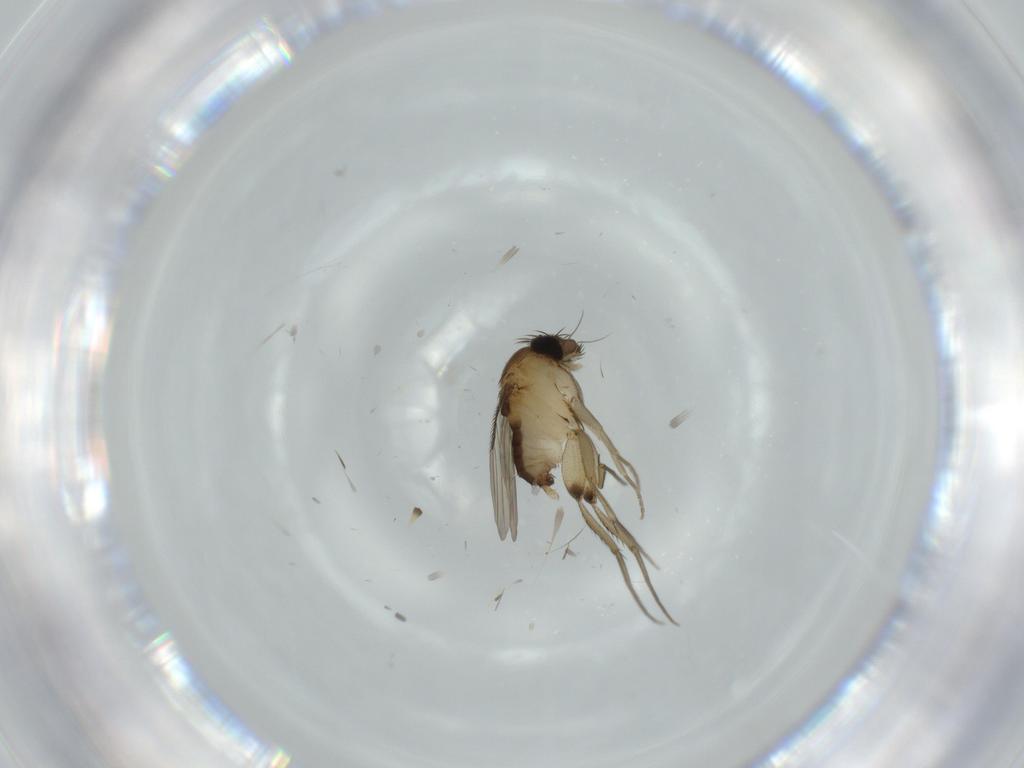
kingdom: Animalia
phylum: Arthropoda
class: Insecta
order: Diptera
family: Phoridae
